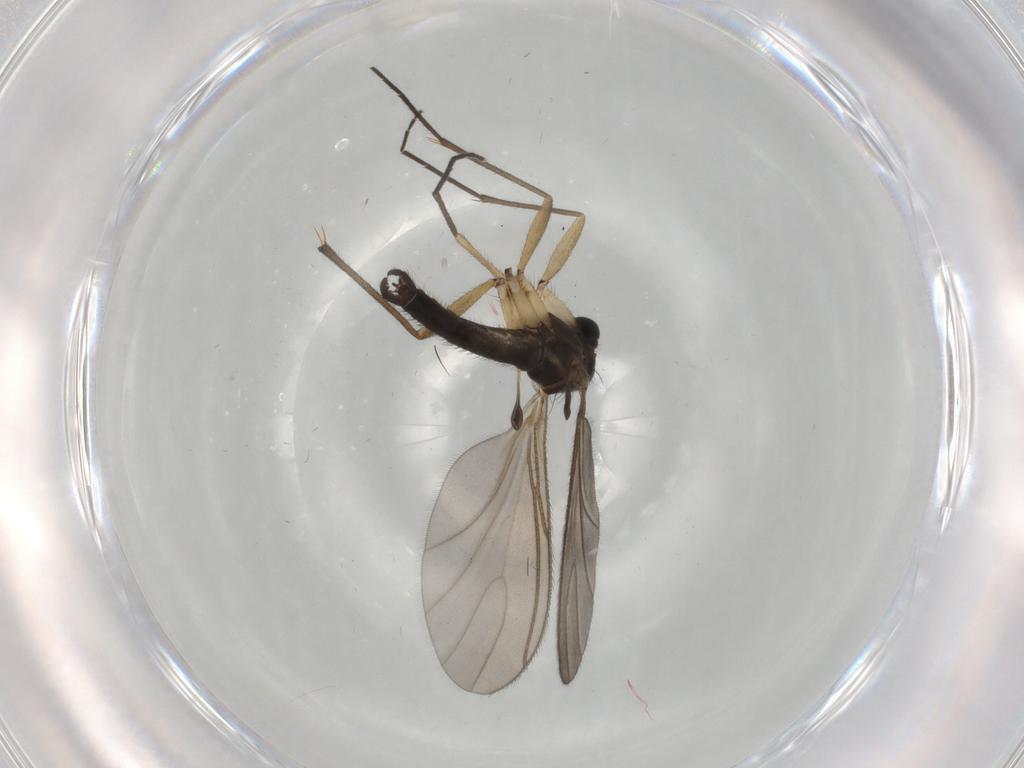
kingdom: Animalia
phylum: Arthropoda
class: Insecta
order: Diptera
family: Sciaridae
